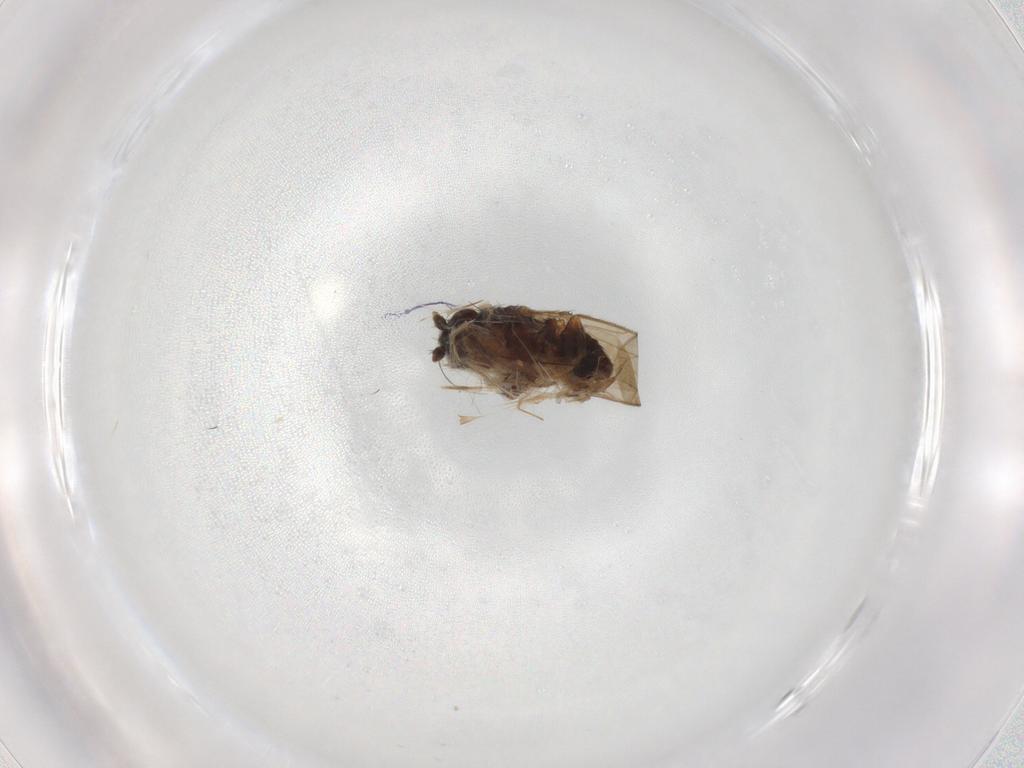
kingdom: Animalia
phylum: Arthropoda
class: Insecta
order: Diptera
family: Sphaeroceridae
